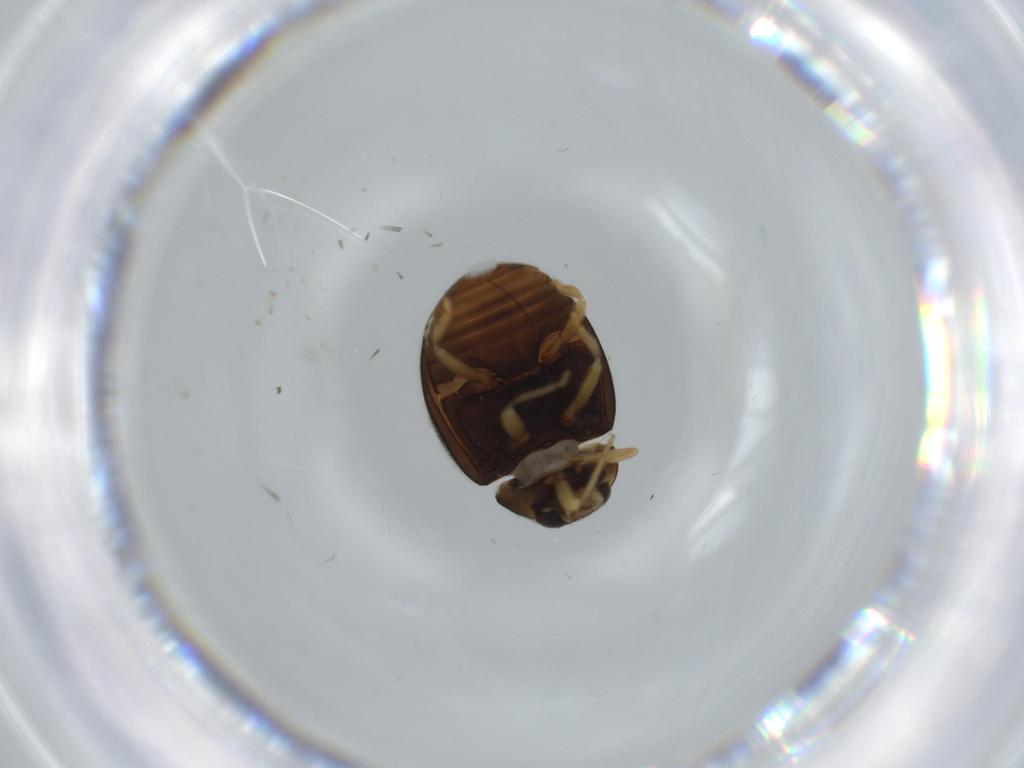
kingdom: Animalia
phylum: Arthropoda
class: Insecta
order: Coleoptera
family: Coccinellidae
